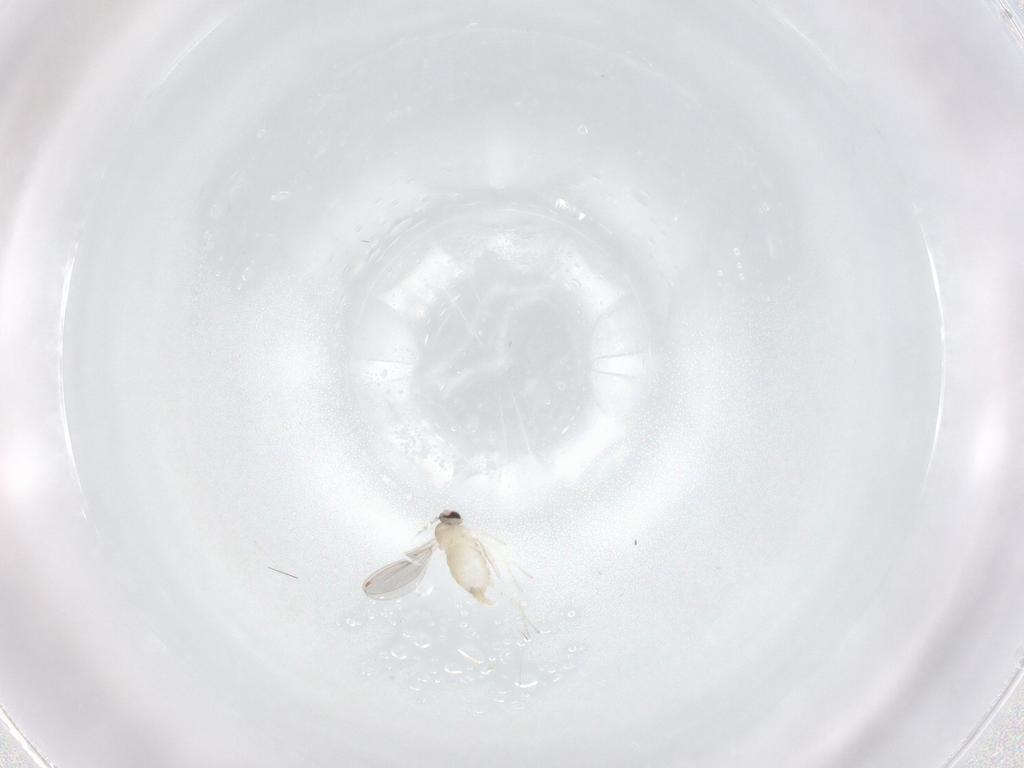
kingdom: Animalia
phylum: Arthropoda
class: Insecta
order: Diptera
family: Cecidomyiidae
